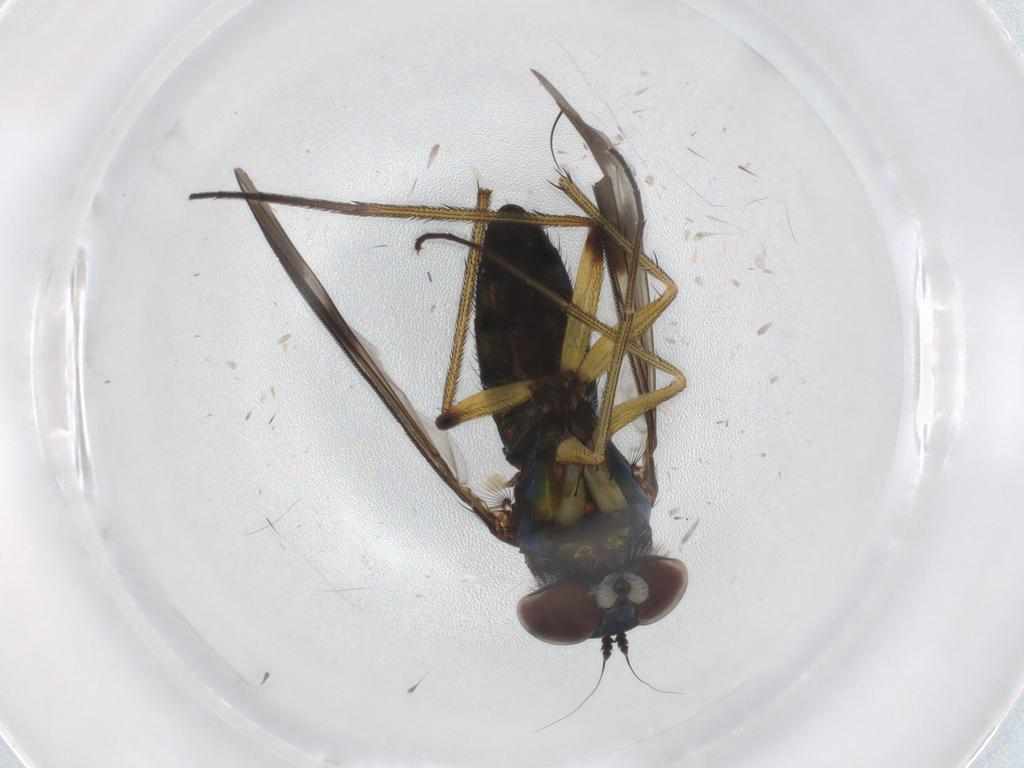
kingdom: Animalia
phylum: Arthropoda
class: Insecta
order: Diptera
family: Dolichopodidae
